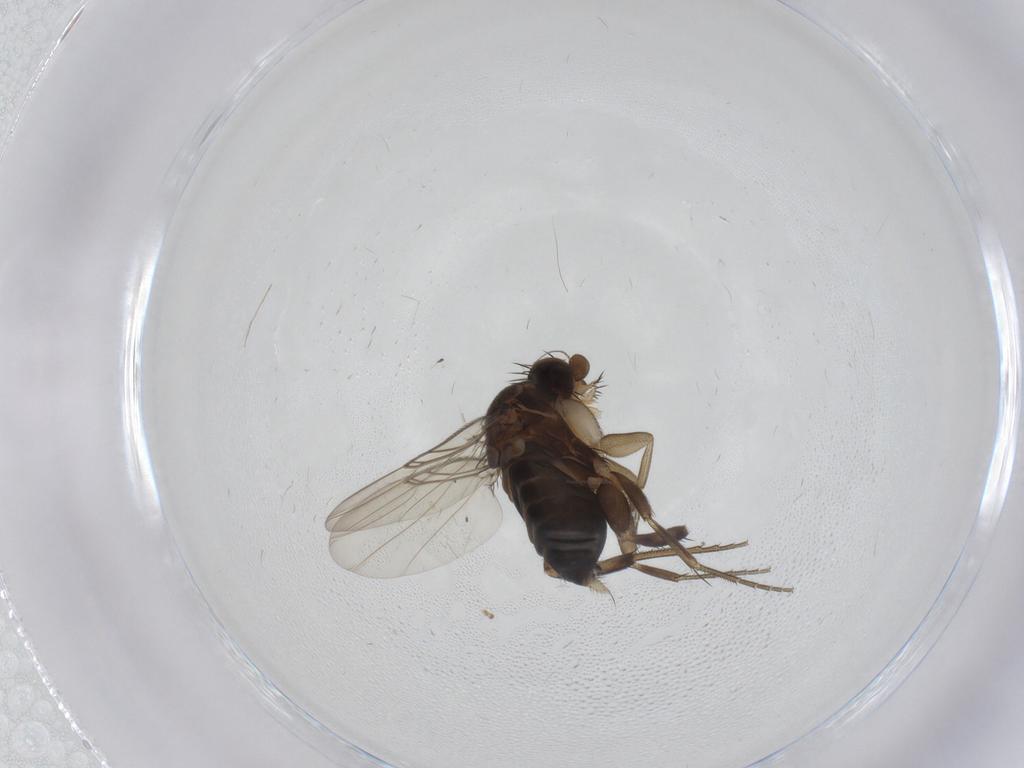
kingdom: Animalia
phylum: Arthropoda
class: Insecta
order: Diptera
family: Phoridae
